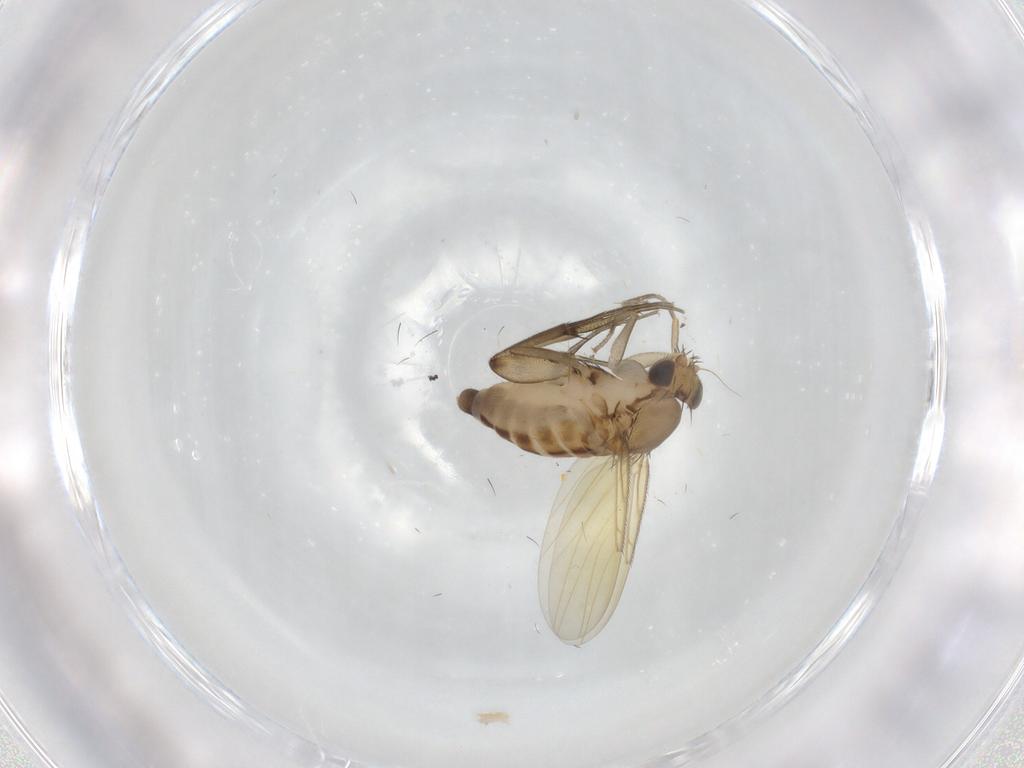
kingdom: Animalia
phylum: Arthropoda
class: Insecta
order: Diptera
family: Phoridae
